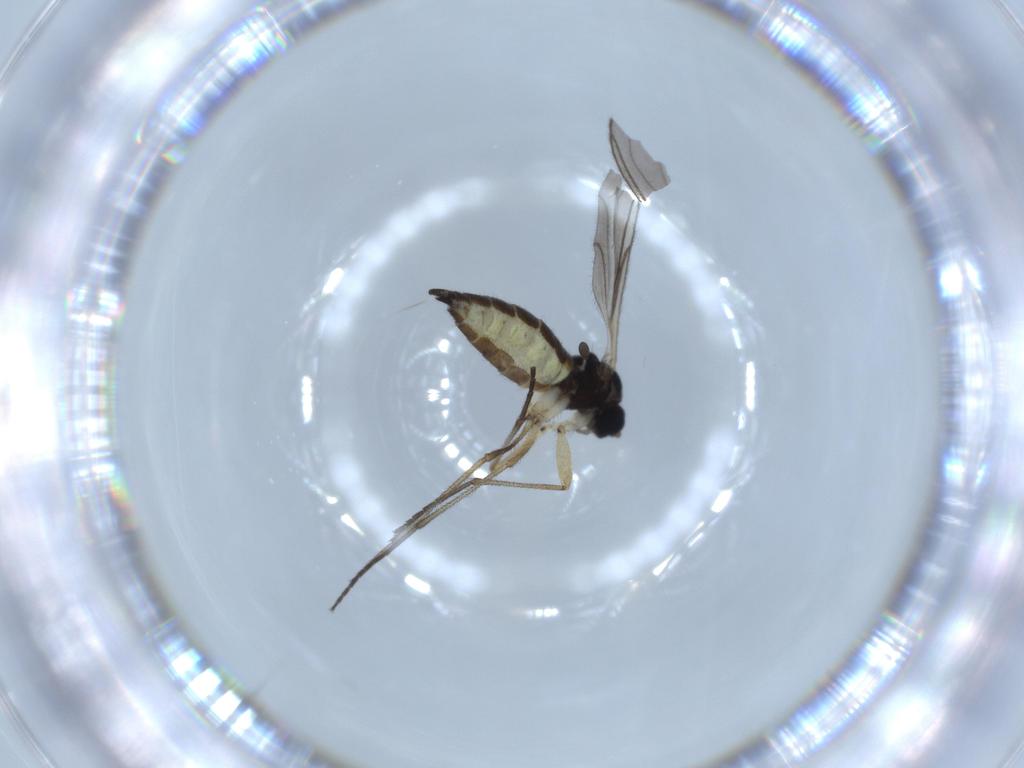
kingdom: Animalia
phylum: Arthropoda
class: Insecta
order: Diptera
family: Sciaridae
